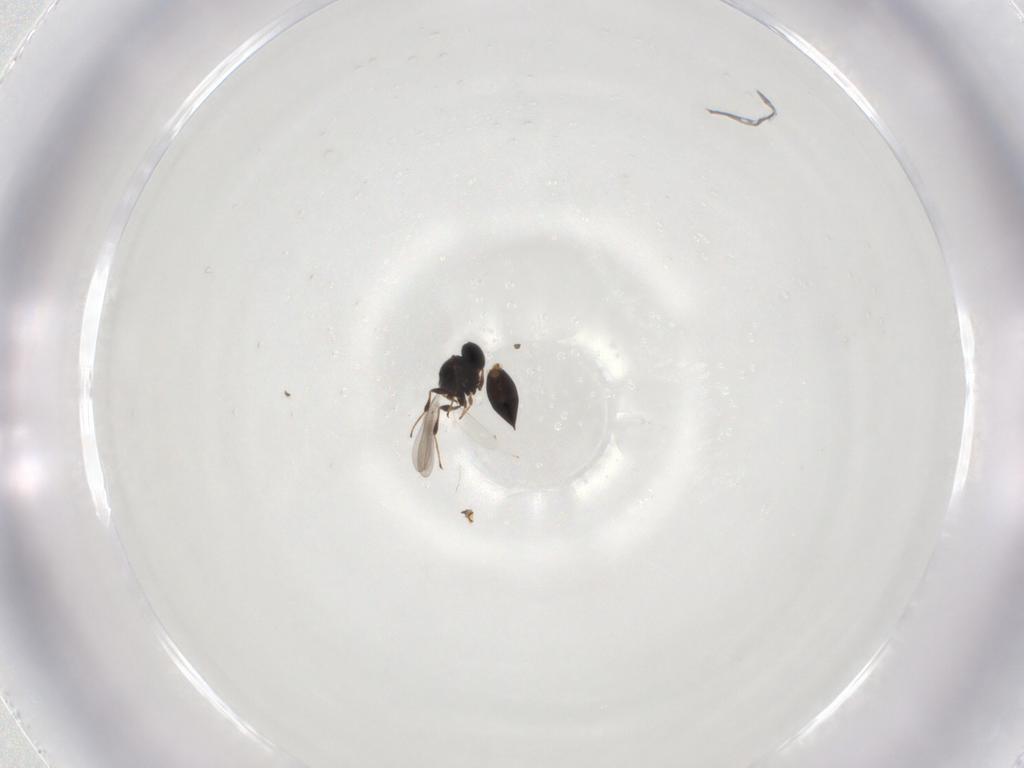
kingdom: Animalia
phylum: Arthropoda
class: Insecta
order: Hymenoptera
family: Platygastridae
